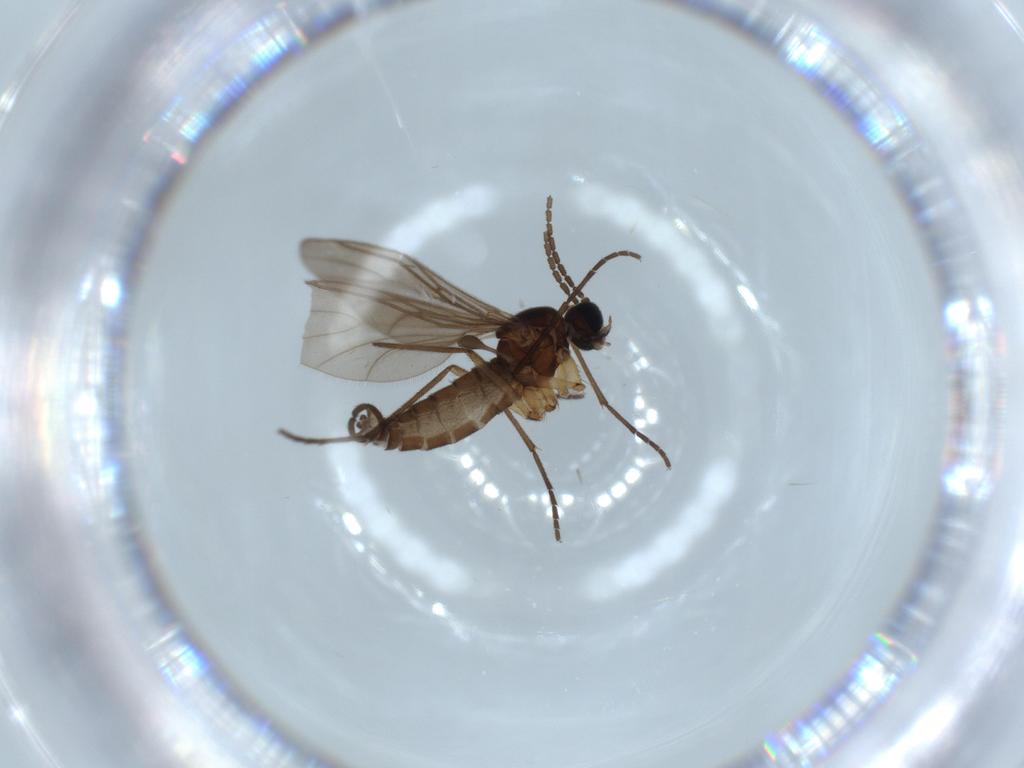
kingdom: Animalia
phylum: Arthropoda
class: Insecta
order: Diptera
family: Sciaridae
